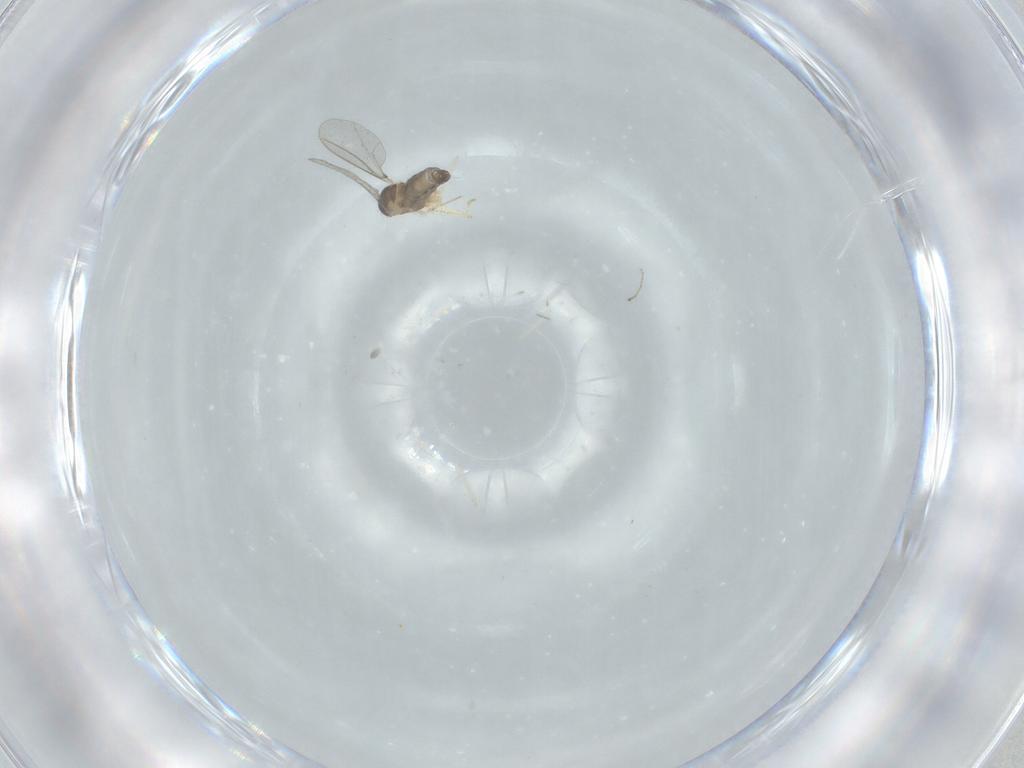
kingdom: Animalia
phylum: Arthropoda
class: Insecta
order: Diptera
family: Cecidomyiidae
